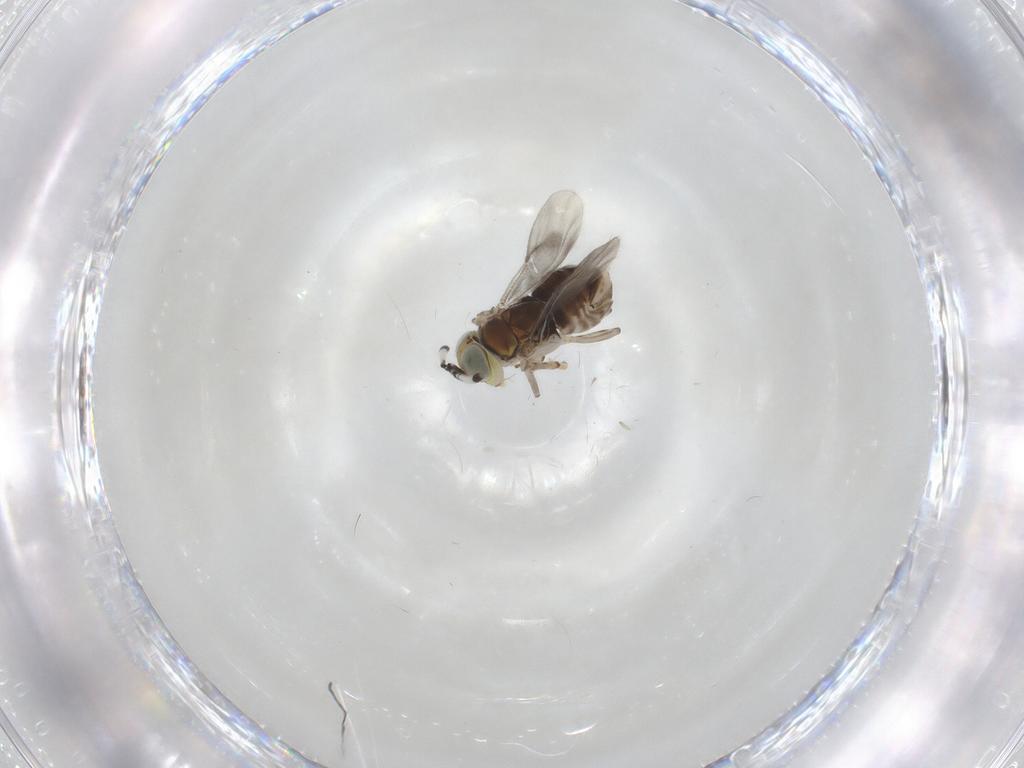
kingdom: Animalia
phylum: Arthropoda
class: Insecta
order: Hymenoptera
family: Encyrtidae
